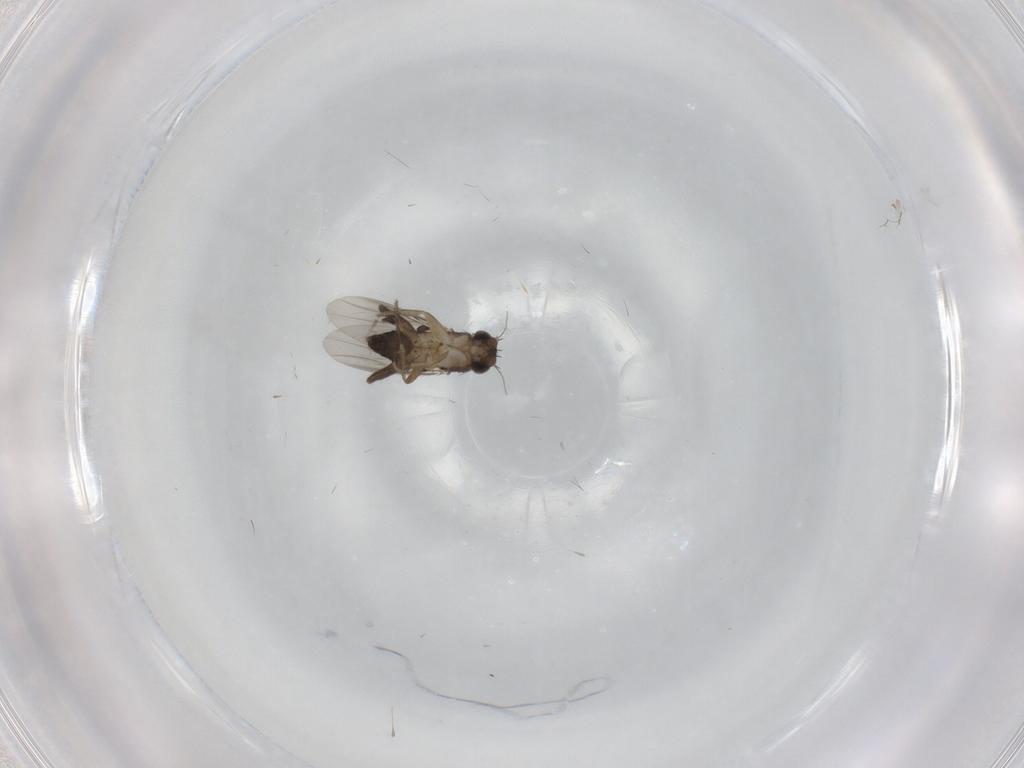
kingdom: Animalia
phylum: Arthropoda
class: Insecta
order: Diptera
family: Phoridae
